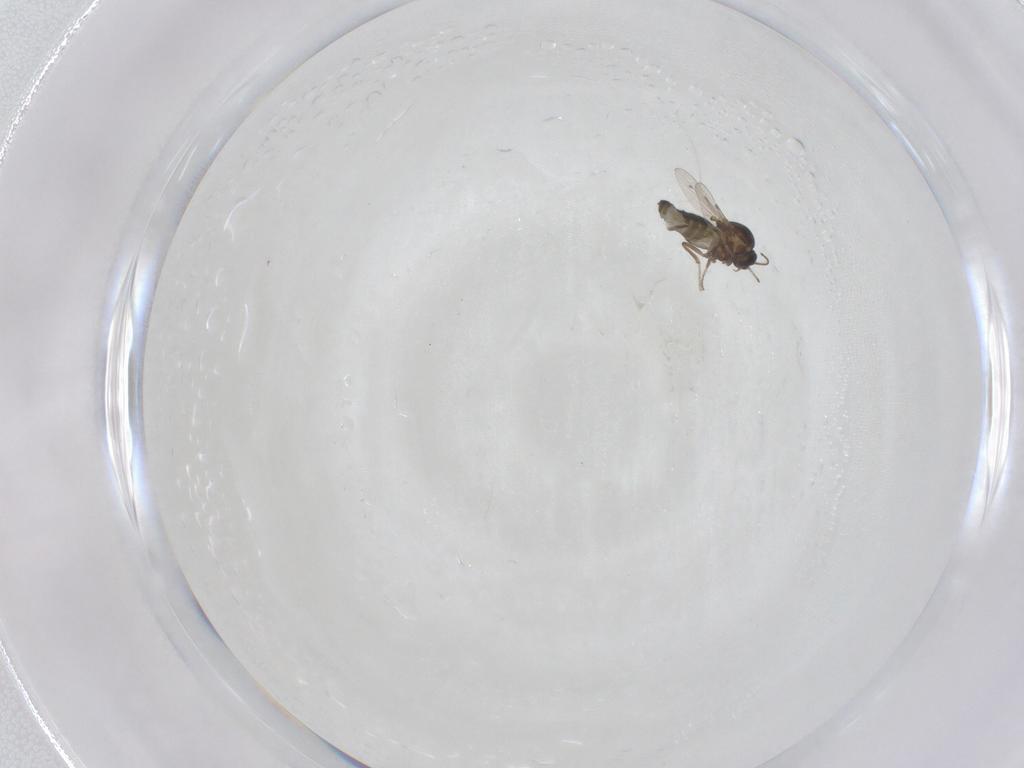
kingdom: Animalia
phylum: Arthropoda
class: Insecta
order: Diptera
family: Ceratopogonidae
